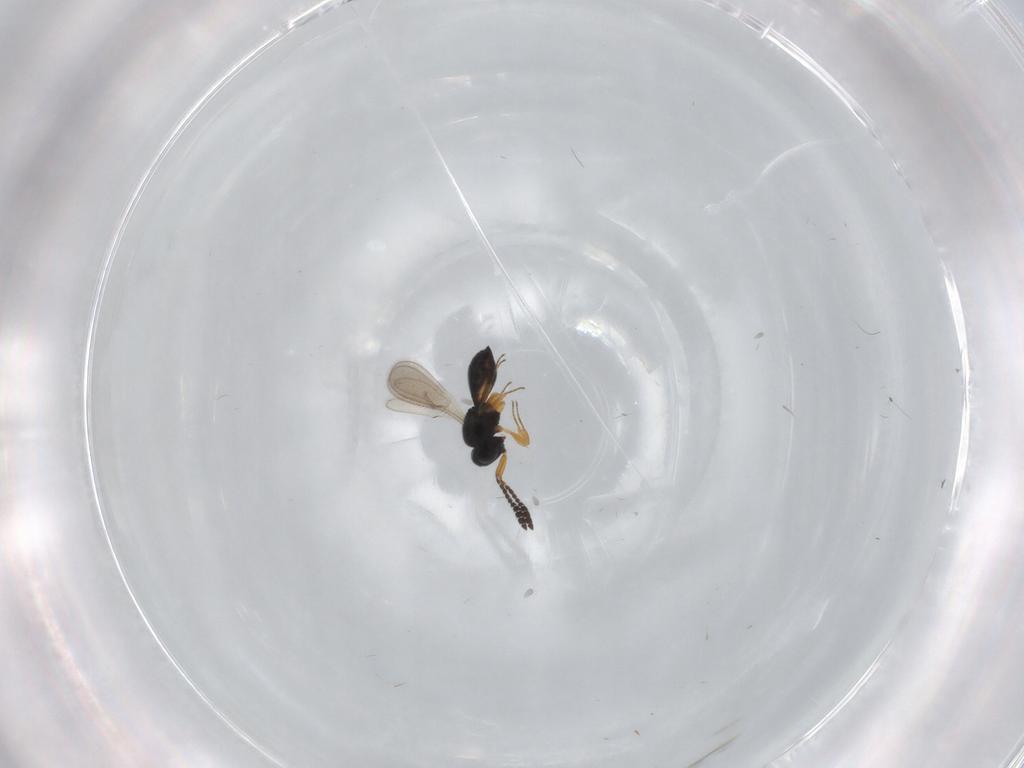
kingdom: Animalia
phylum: Arthropoda
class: Insecta
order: Hymenoptera
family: Scelionidae
